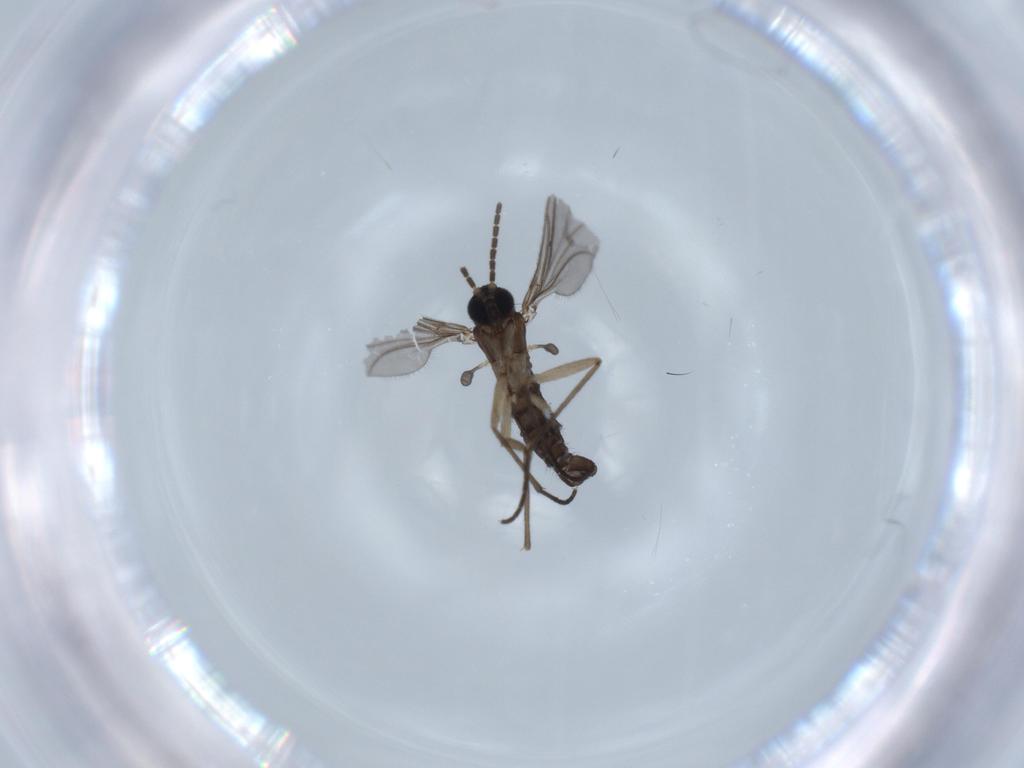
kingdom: Animalia
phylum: Arthropoda
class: Insecta
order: Diptera
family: Sciaridae
